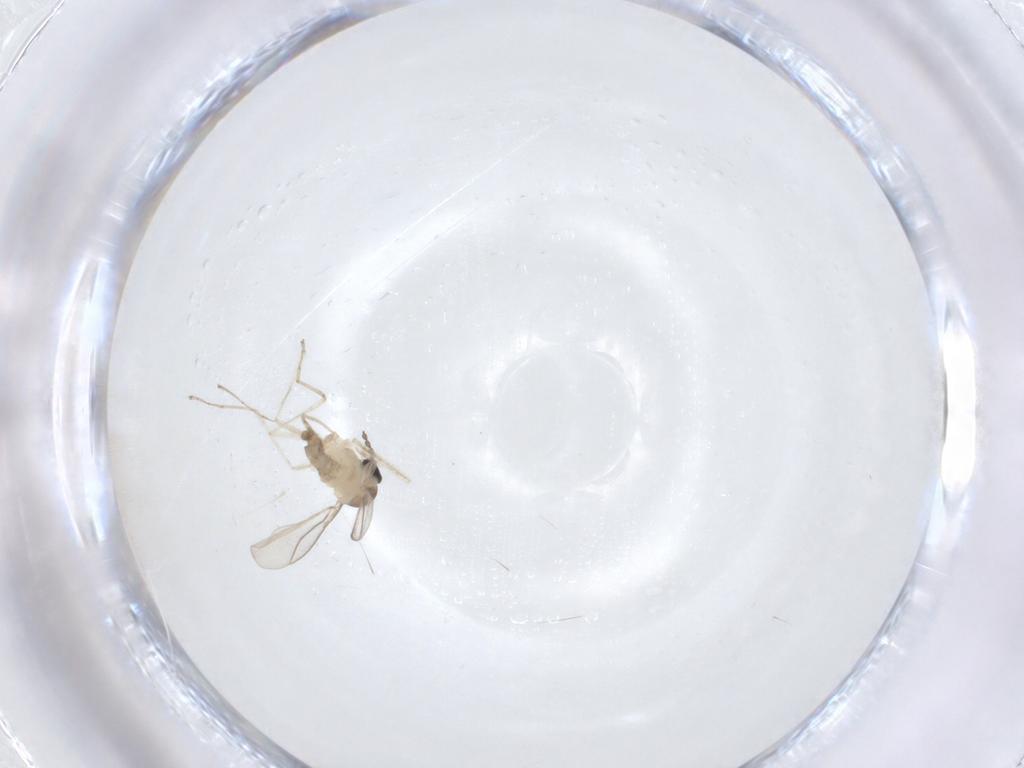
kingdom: Animalia
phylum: Arthropoda
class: Insecta
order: Diptera
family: Cecidomyiidae
